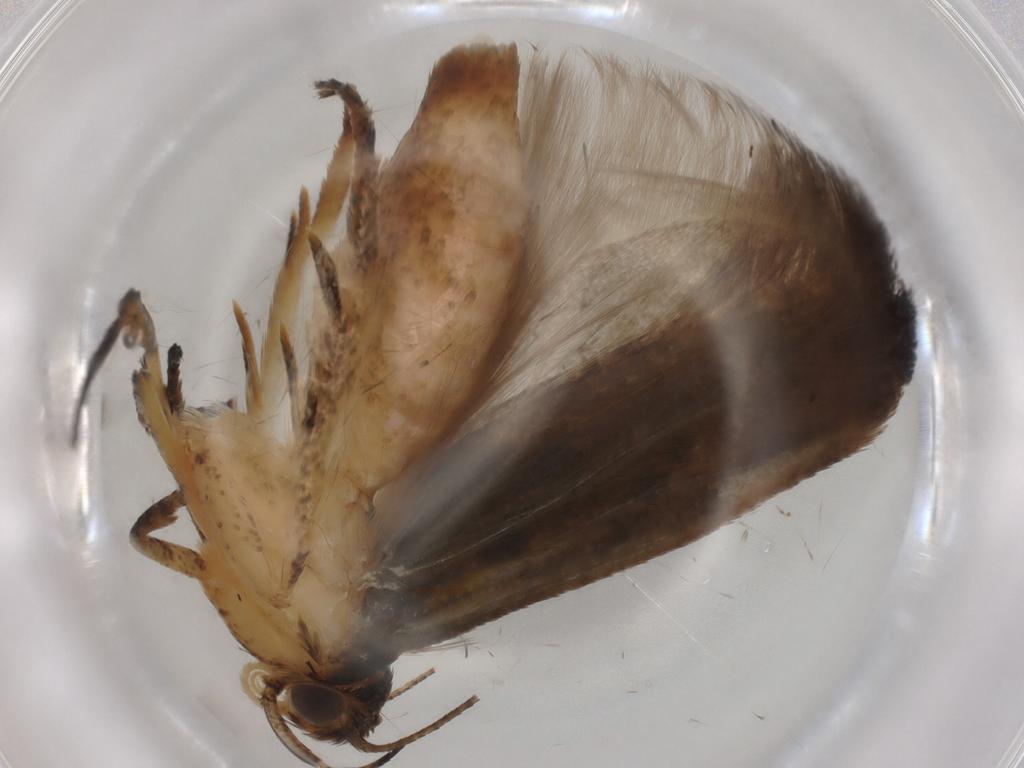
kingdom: Animalia
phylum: Arthropoda
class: Insecta
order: Lepidoptera
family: Gelechiidae
